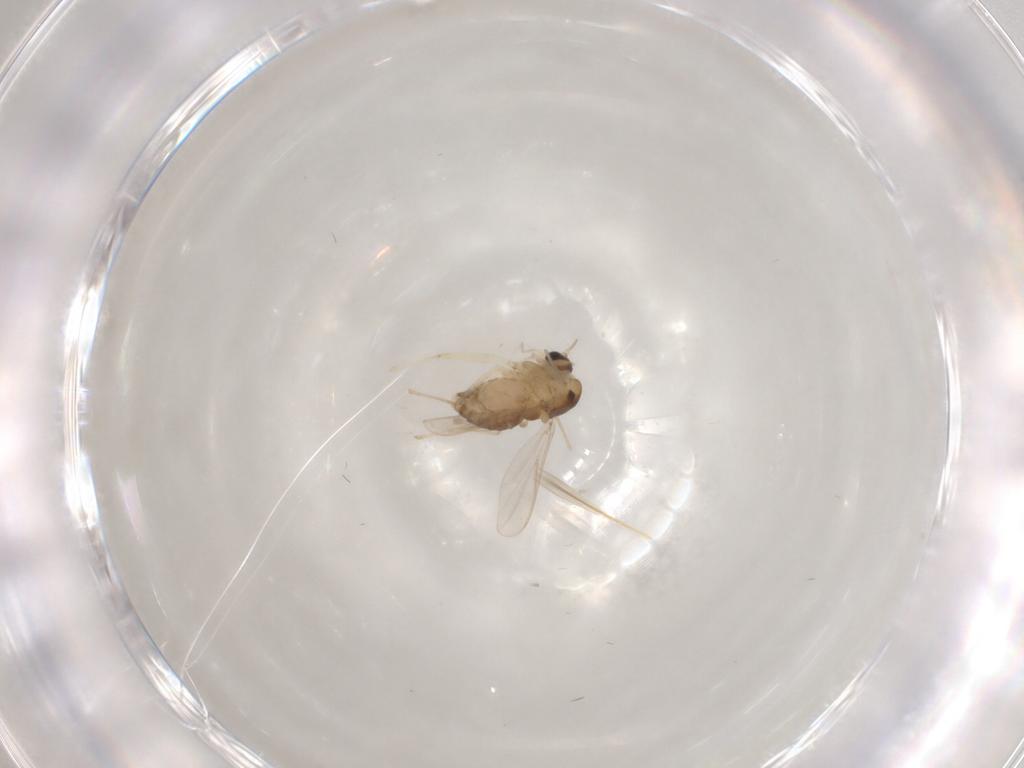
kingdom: Animalia
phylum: Arthropoda
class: Insecta
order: Diptera
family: Chironomidae
